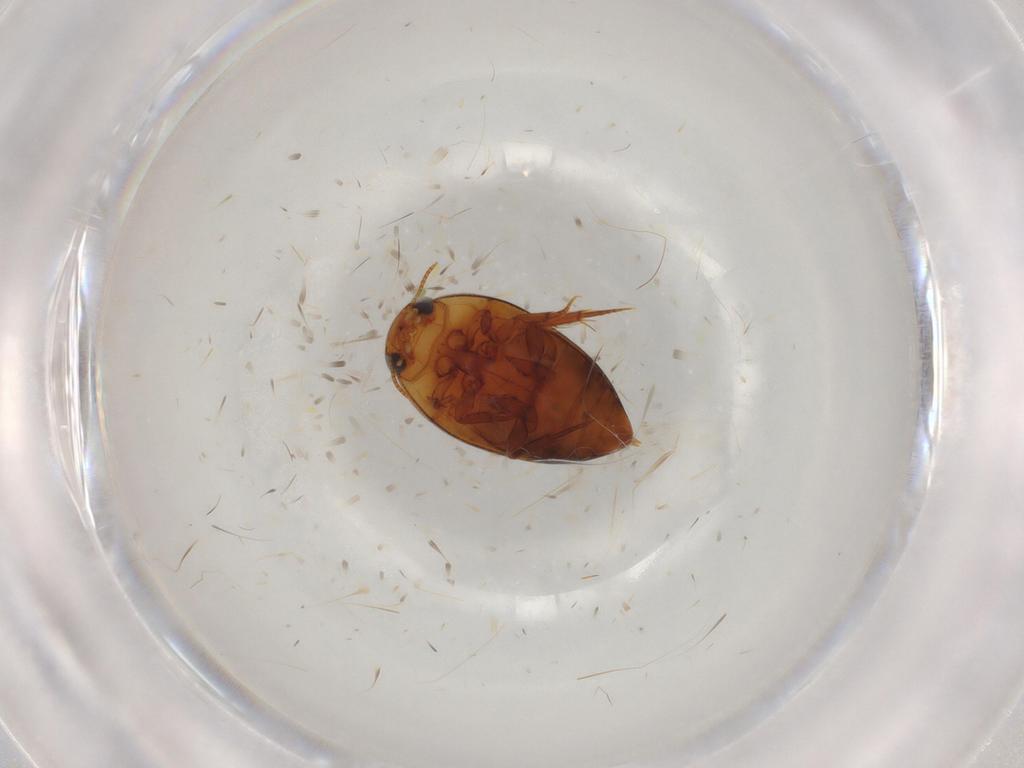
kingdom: Animalia
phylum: Arthropoda
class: Insecta
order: Coleoptera
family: Noteridae
